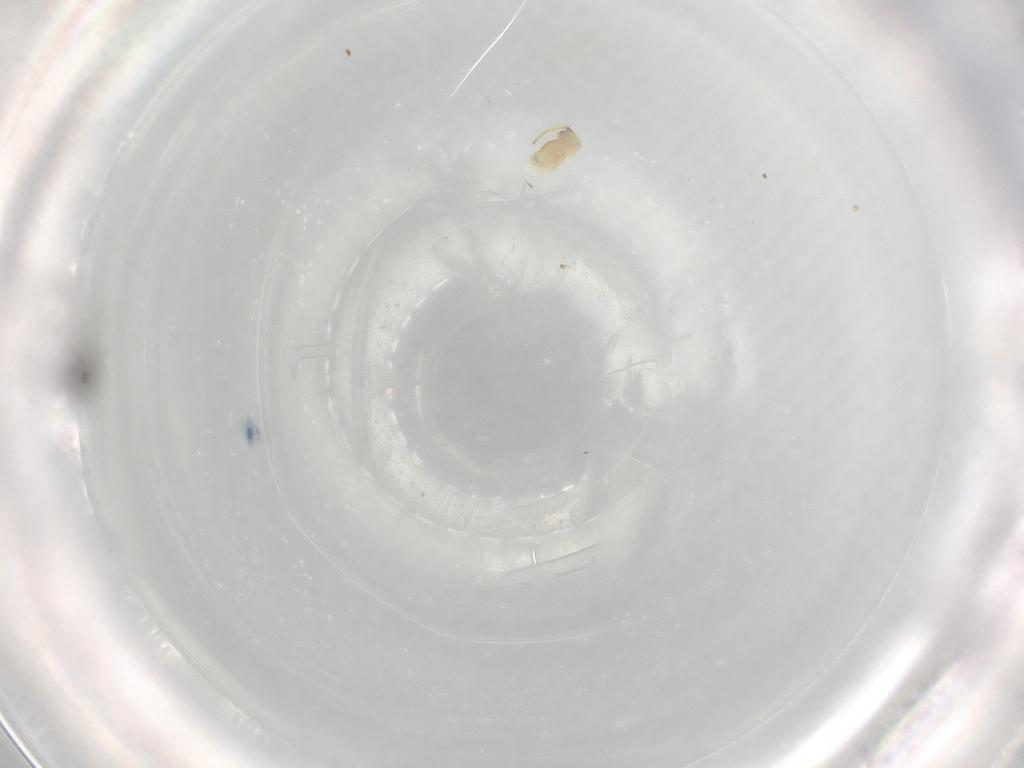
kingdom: Animalia
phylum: Arthropoda
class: Insecta
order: Diptera
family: Cecidomyiidae
